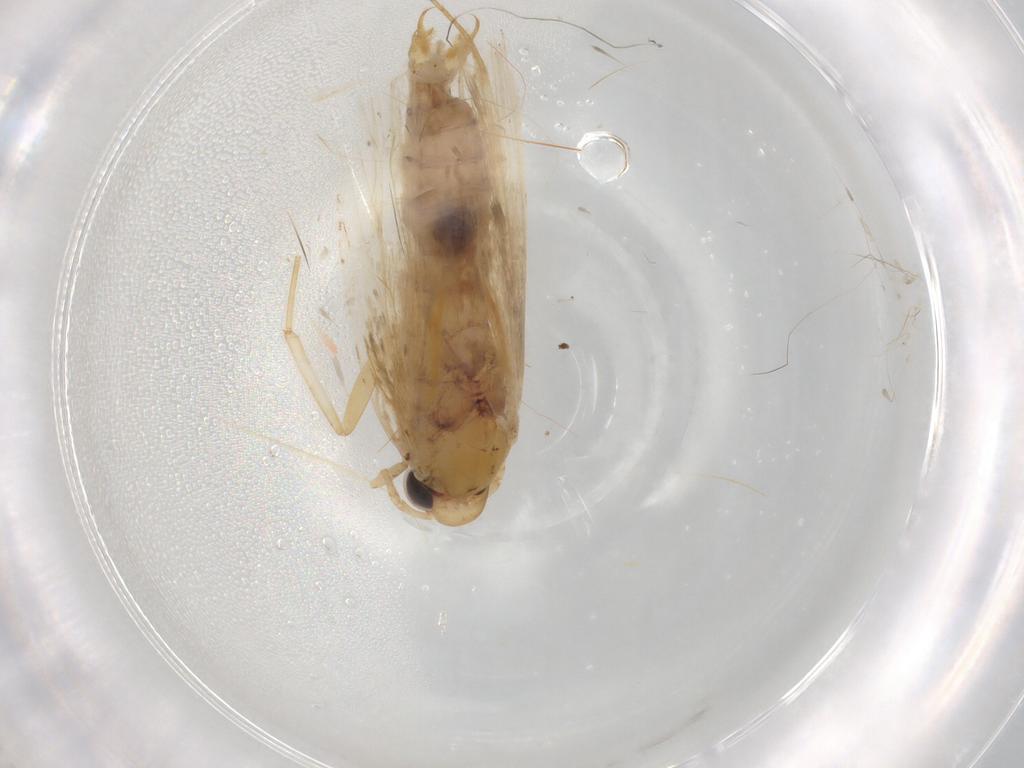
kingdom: Animalia
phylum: Arthropoda
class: Insecta
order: Lepidoptera
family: Depressariidae
